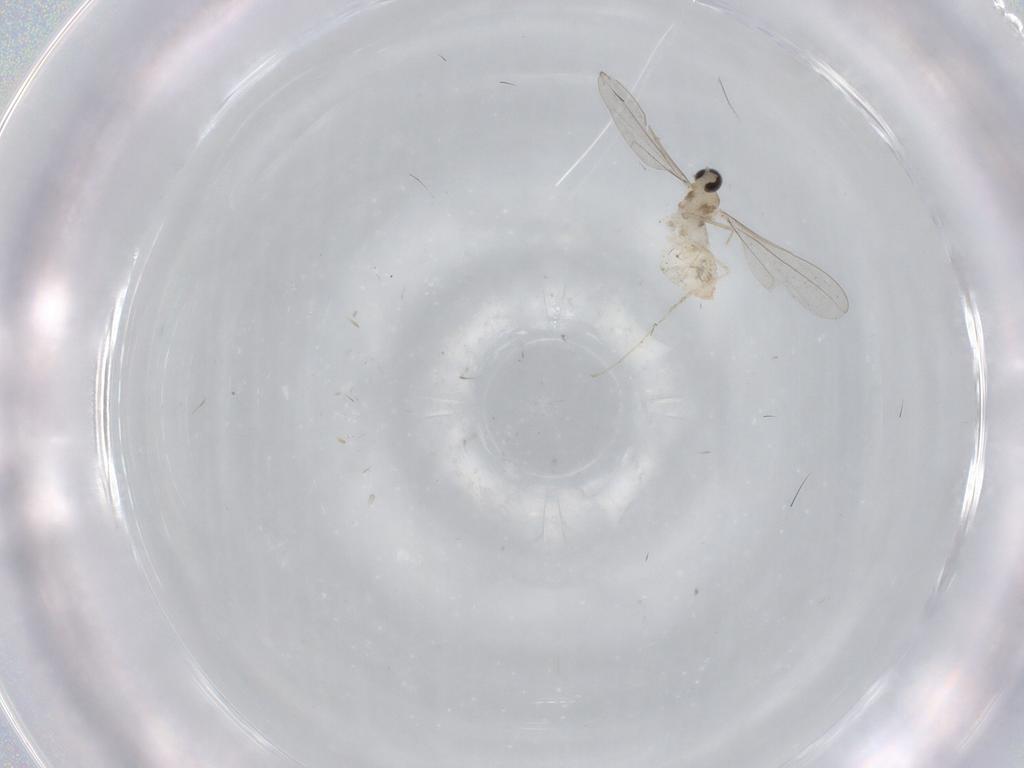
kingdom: Animalia
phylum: Arthropoda
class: Insecta
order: Diptera
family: Cecidomyiidae
